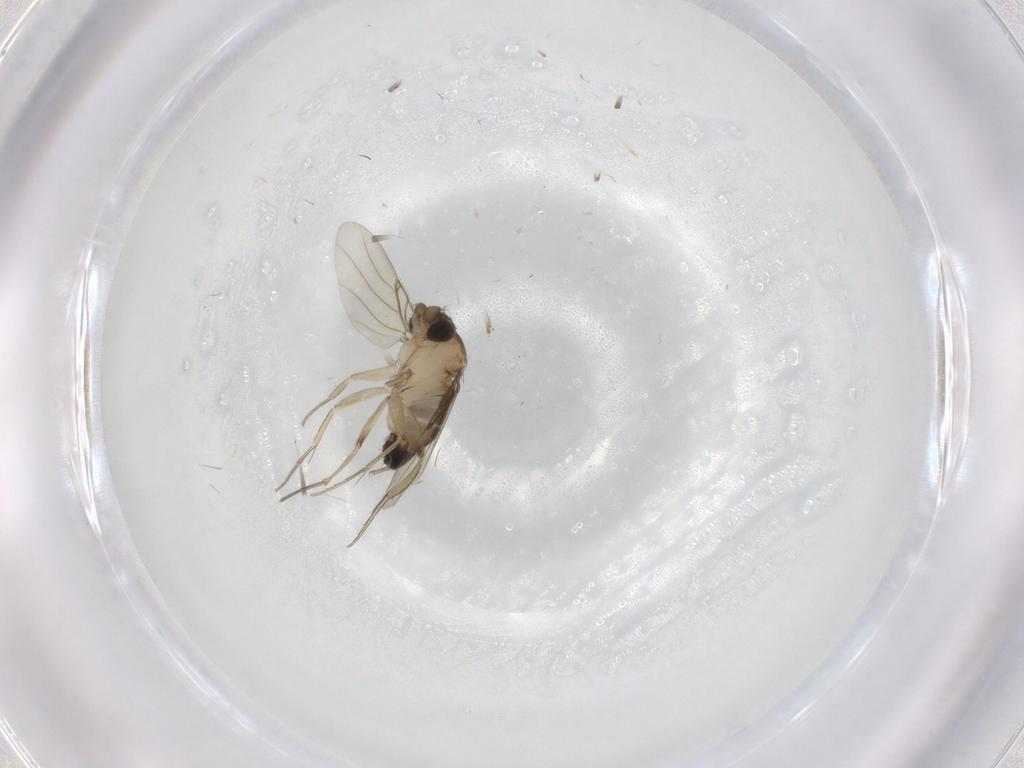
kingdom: Animalia
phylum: Arthropoda
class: Insecta
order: Diptera
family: Phoridae
